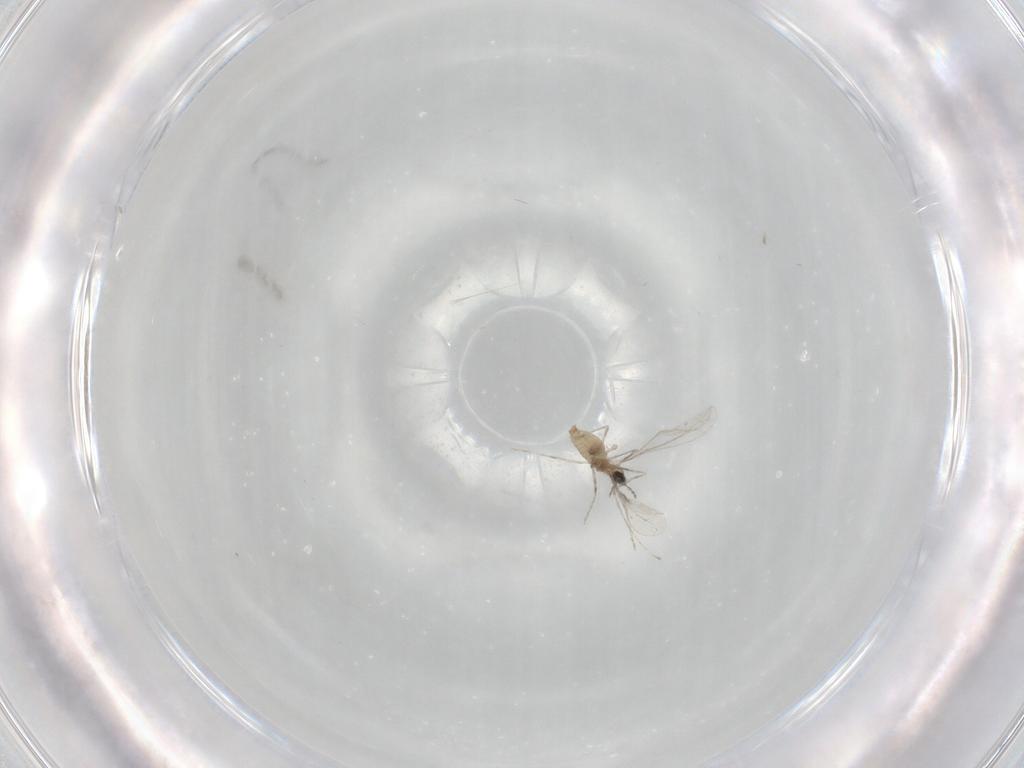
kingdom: Animalia
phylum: Arthropoda
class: Insecta
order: Diptera
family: Cecidomyiidae
